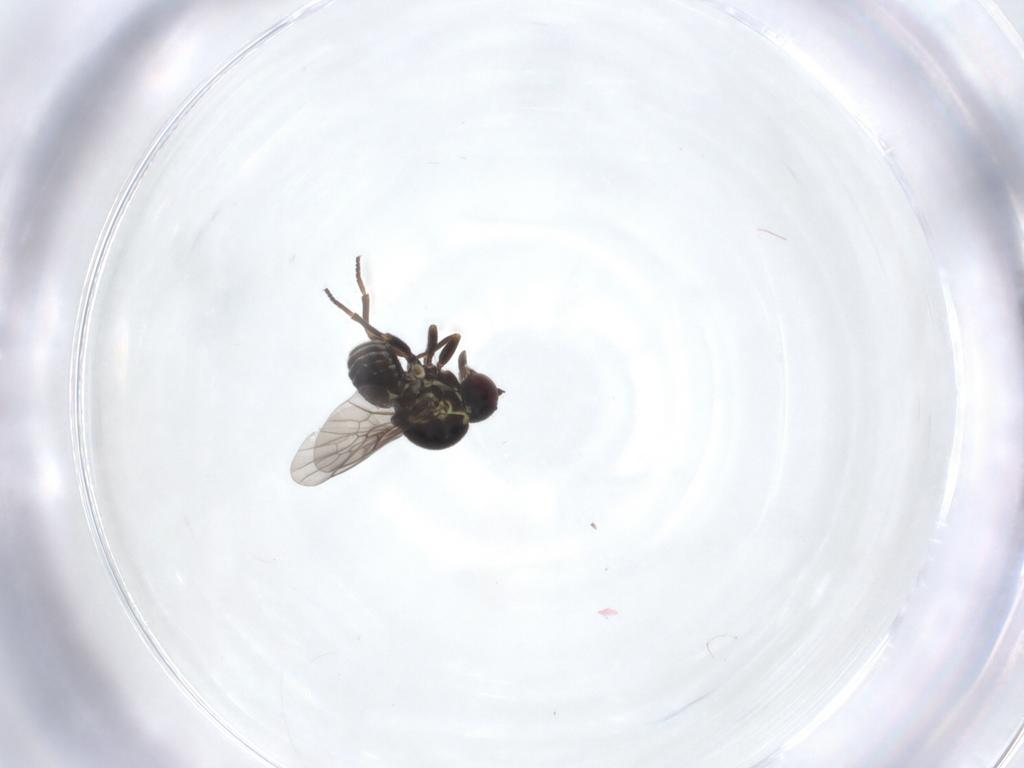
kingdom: Animalia
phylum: Arthropoda
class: Insecta
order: Diptera
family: Bombyliidae
